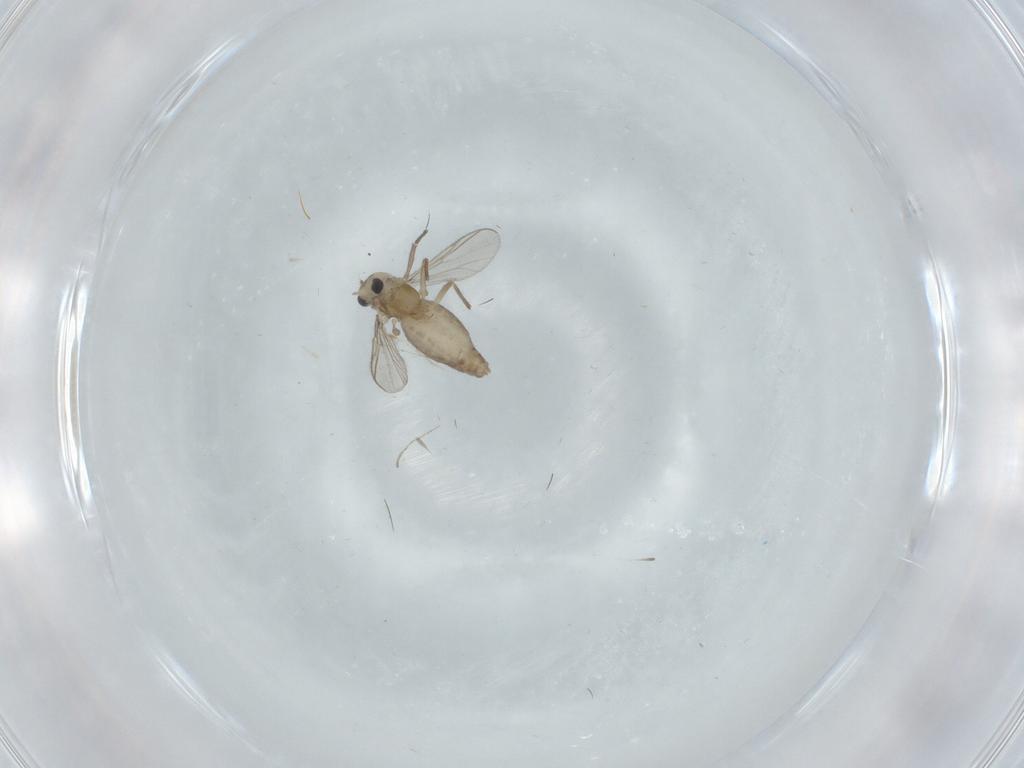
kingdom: Animalia
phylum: Arthropoda
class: Insecta
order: Diptera
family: Chironomidae
